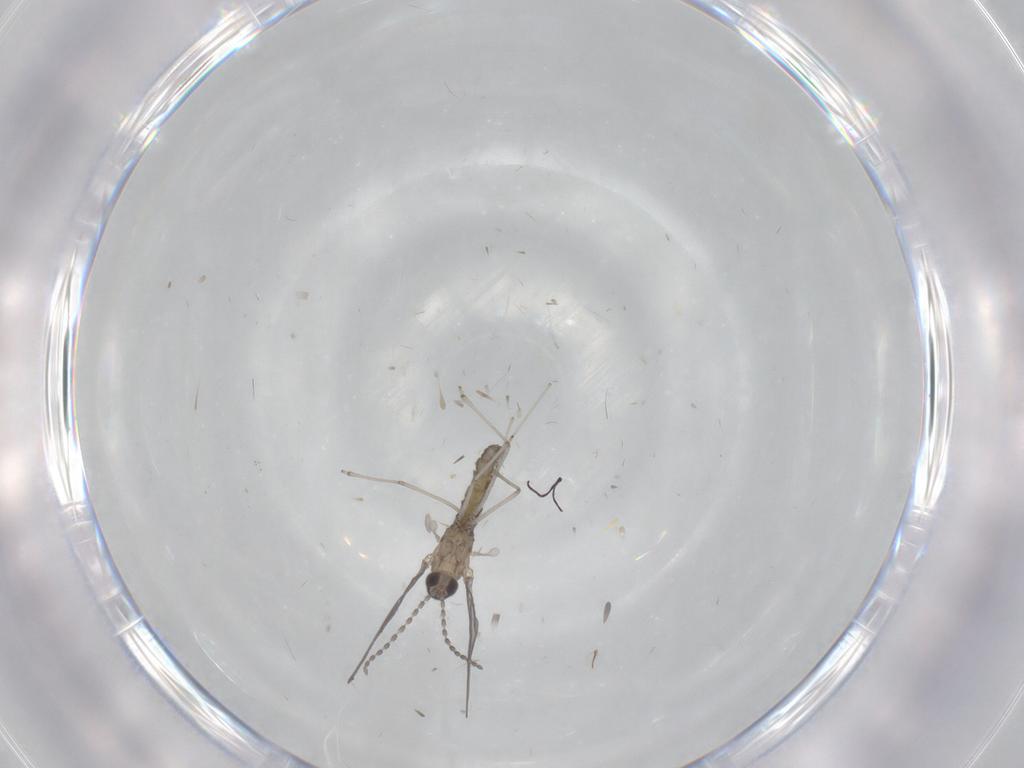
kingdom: Animalia
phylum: Arthropoda
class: Insecta
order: Diptera
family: Cecidomyiidae
